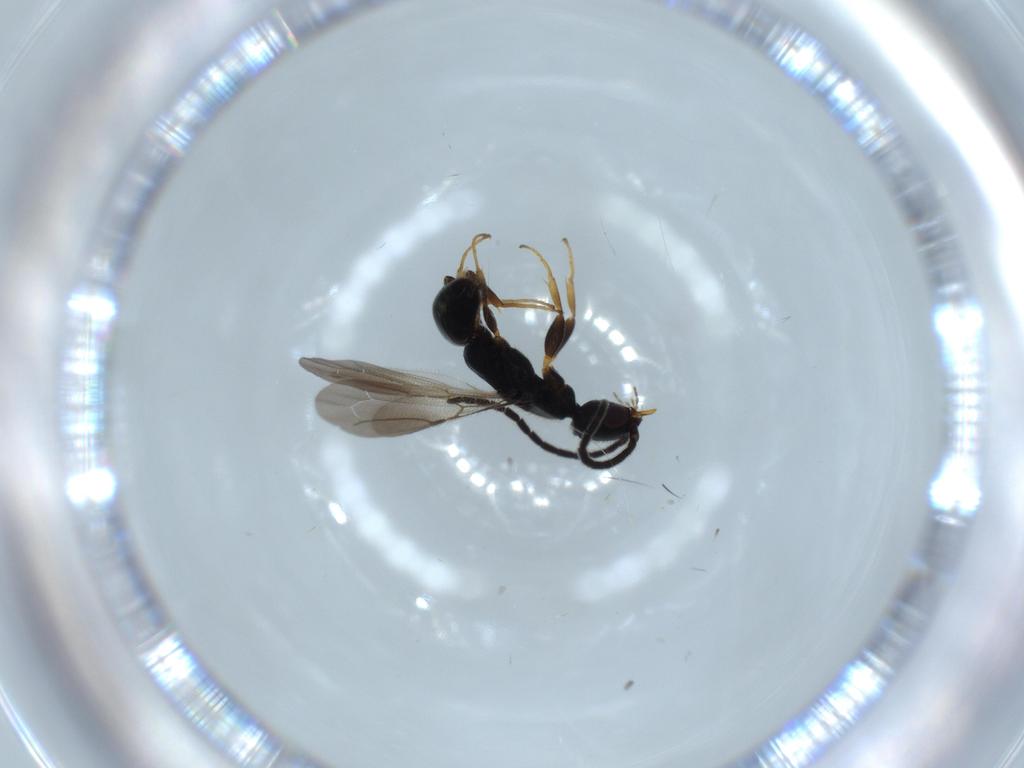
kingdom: Animalia
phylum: Arthropoda
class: Insecta
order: Hymenoptera
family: Bethylidae
